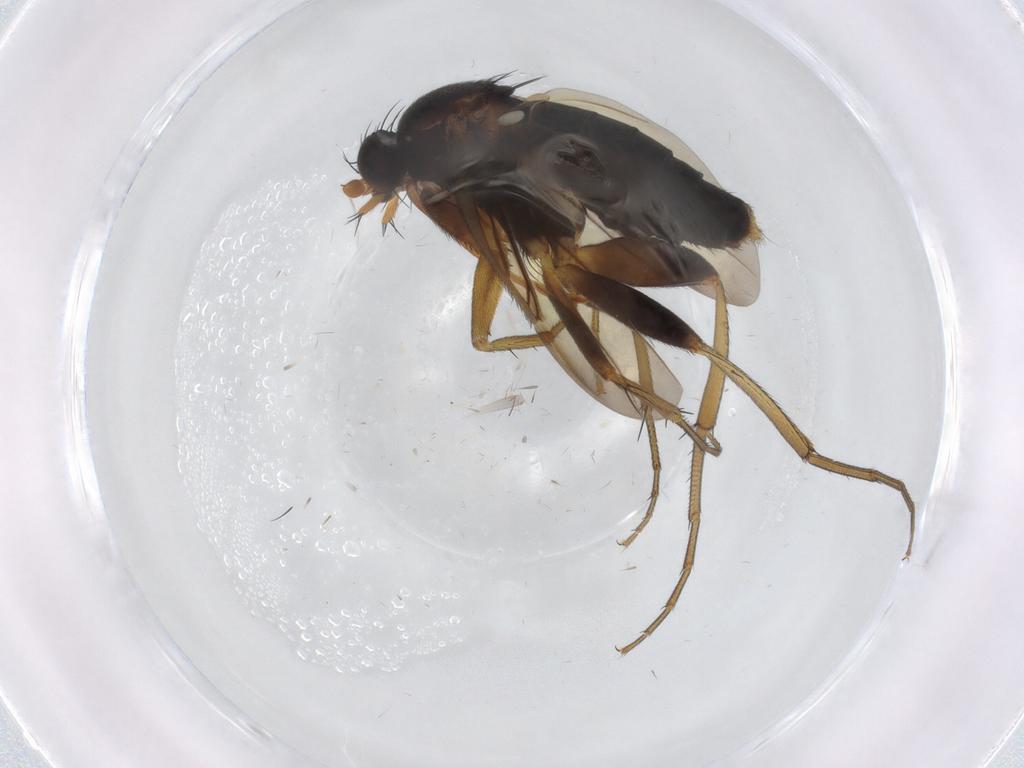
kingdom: Animalia
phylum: Arthropoda
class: Insecta
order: Diptera
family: Phoridae
